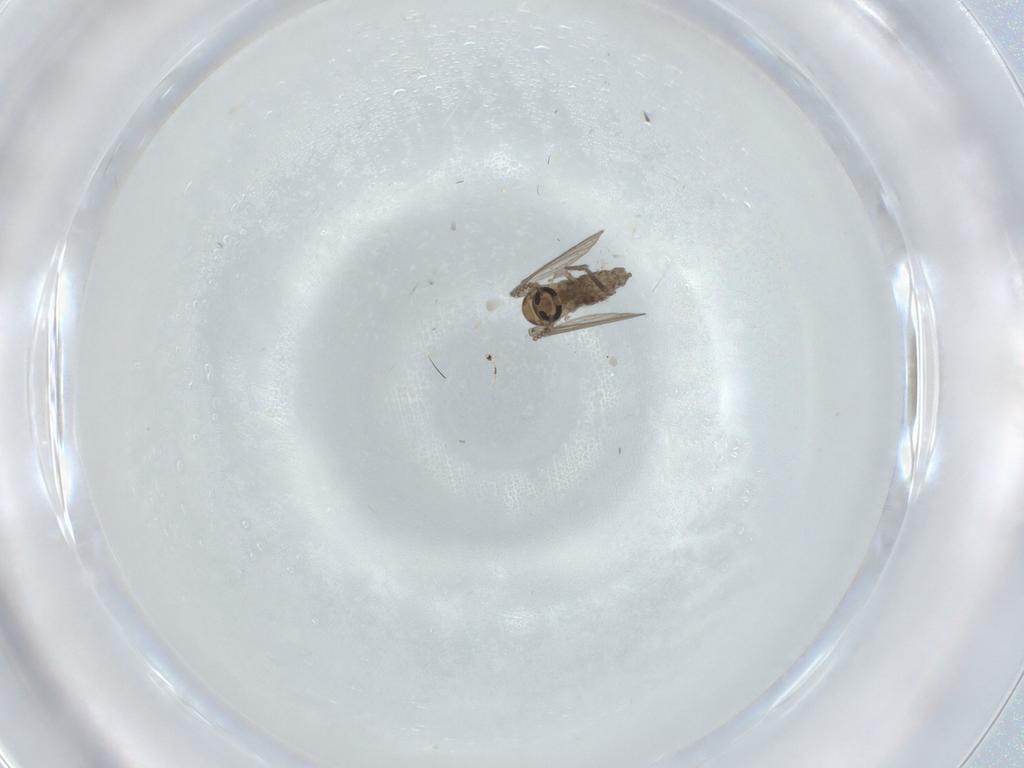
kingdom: Animalia
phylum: Arthropoda
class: Insecta
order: Diptera
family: Psychodidae
